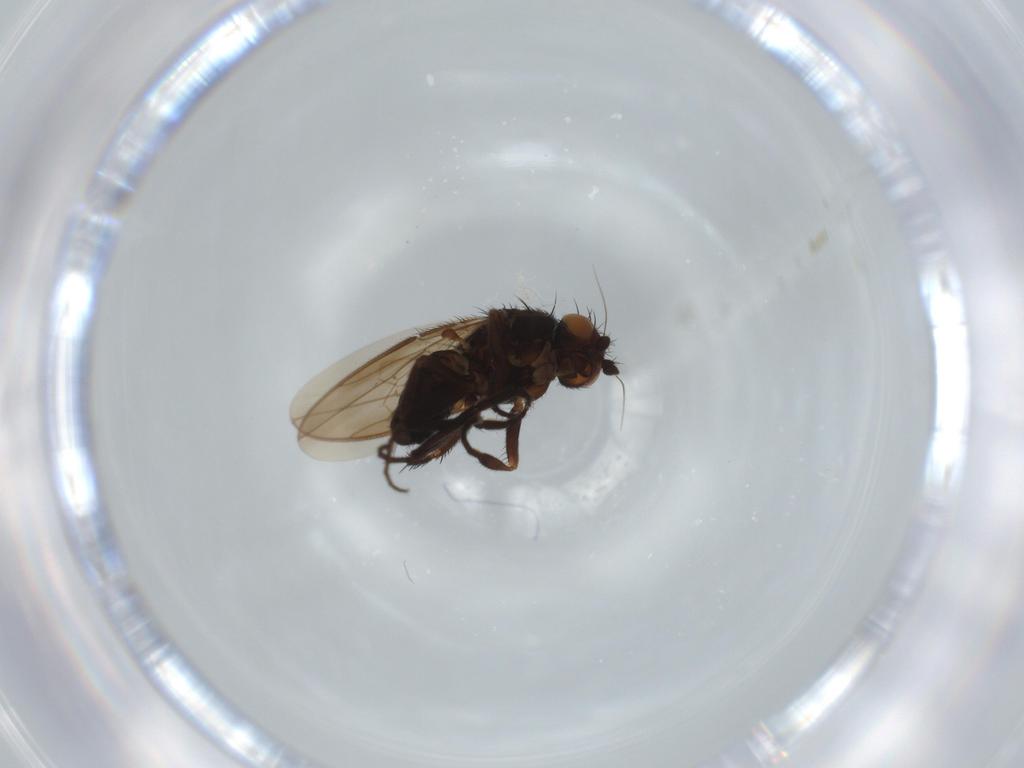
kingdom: Animalia
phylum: Arthropoda
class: Insecta
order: Diptera
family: Sphaeroceridae
